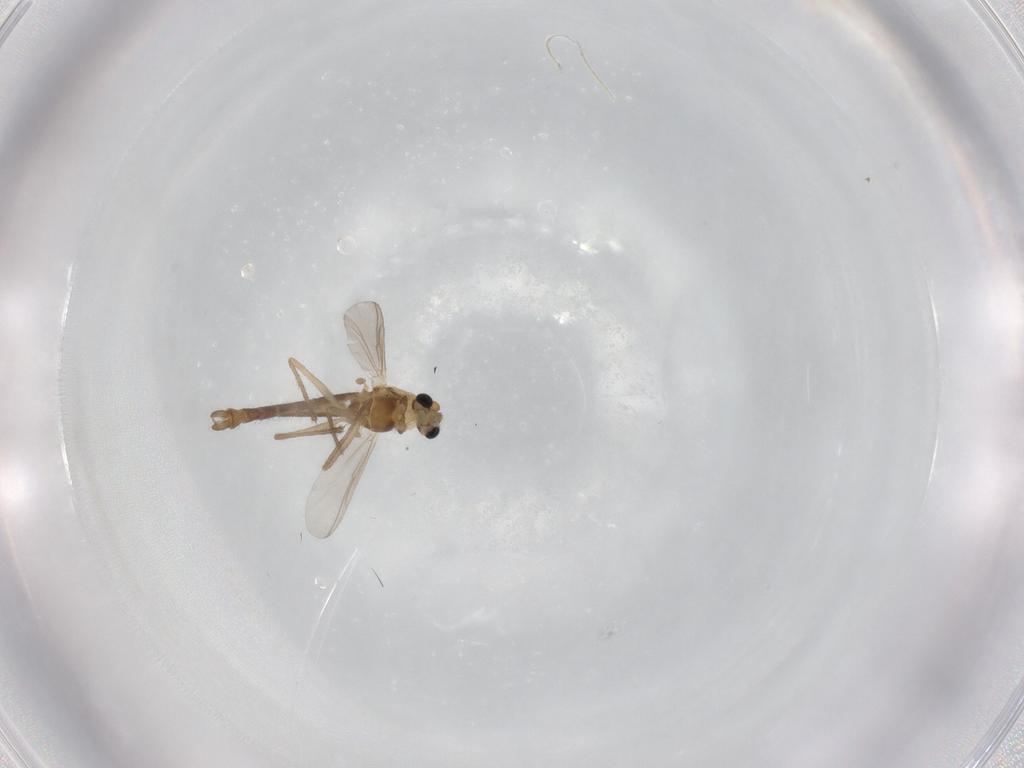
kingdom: Animalia
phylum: Arthropoda
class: Insecta
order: Diptera
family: Chironomidae
